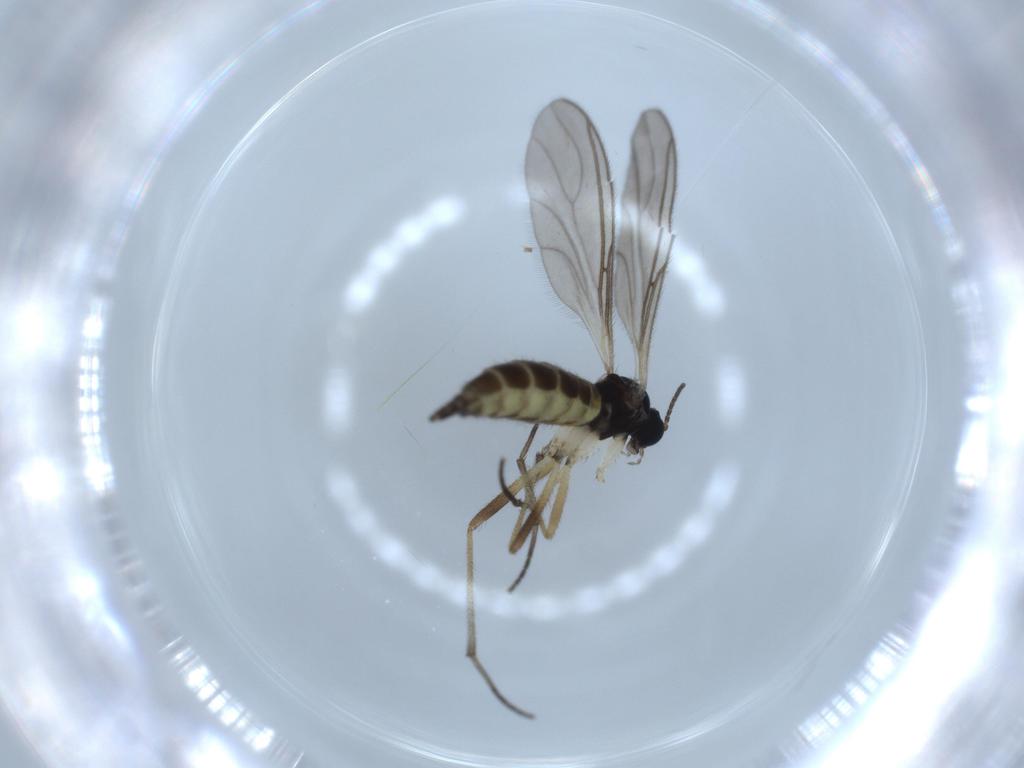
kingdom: Animalia
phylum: Arthropoda
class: Insecta
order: Diptera
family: Sciaridae
